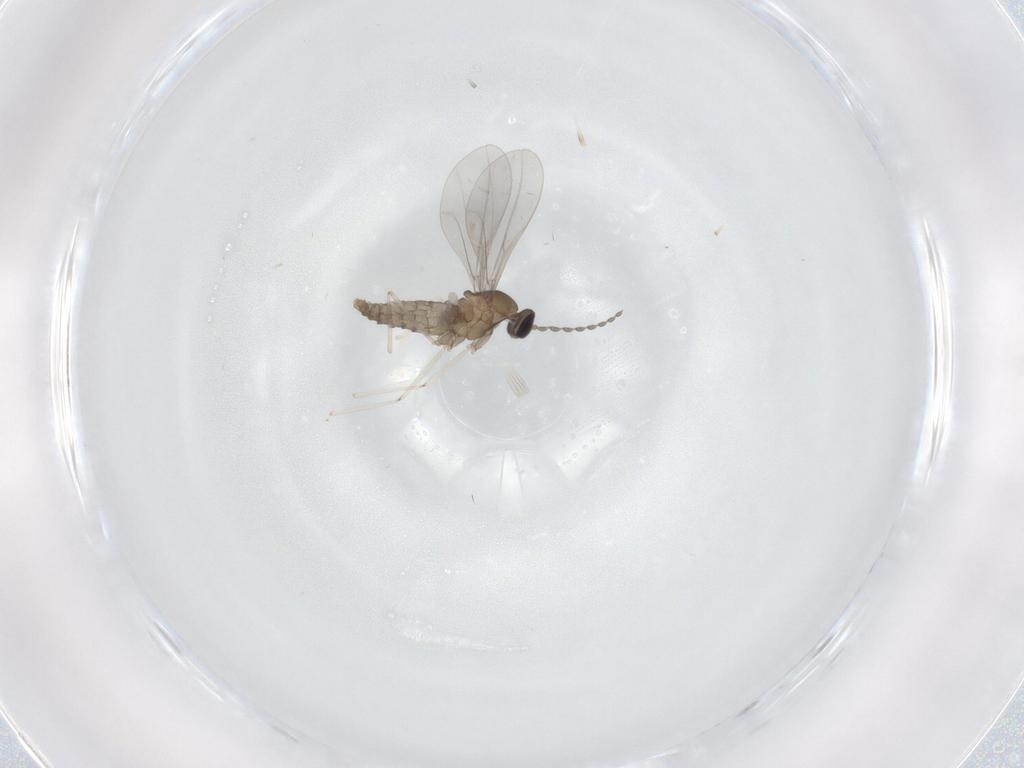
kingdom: Animalia
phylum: Arthropoda
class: Insecta
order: Diptera
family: Cecidomyiidae
